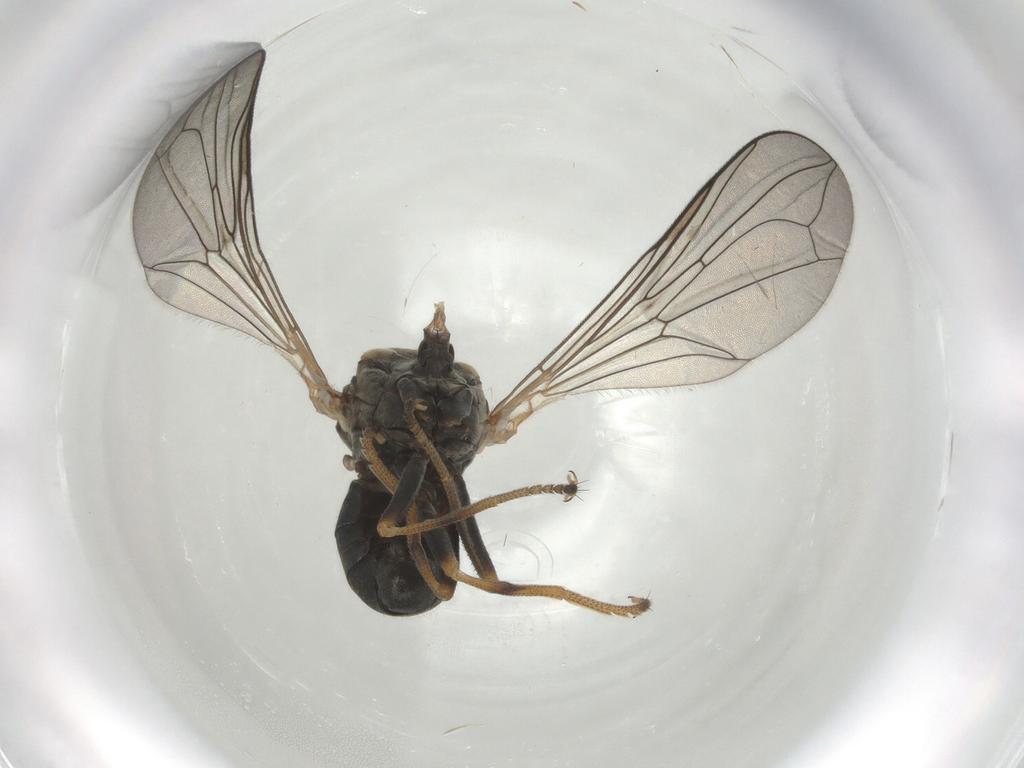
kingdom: Animalia
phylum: Arthropoda
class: Insecta
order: Diptera
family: Pipunculidae
